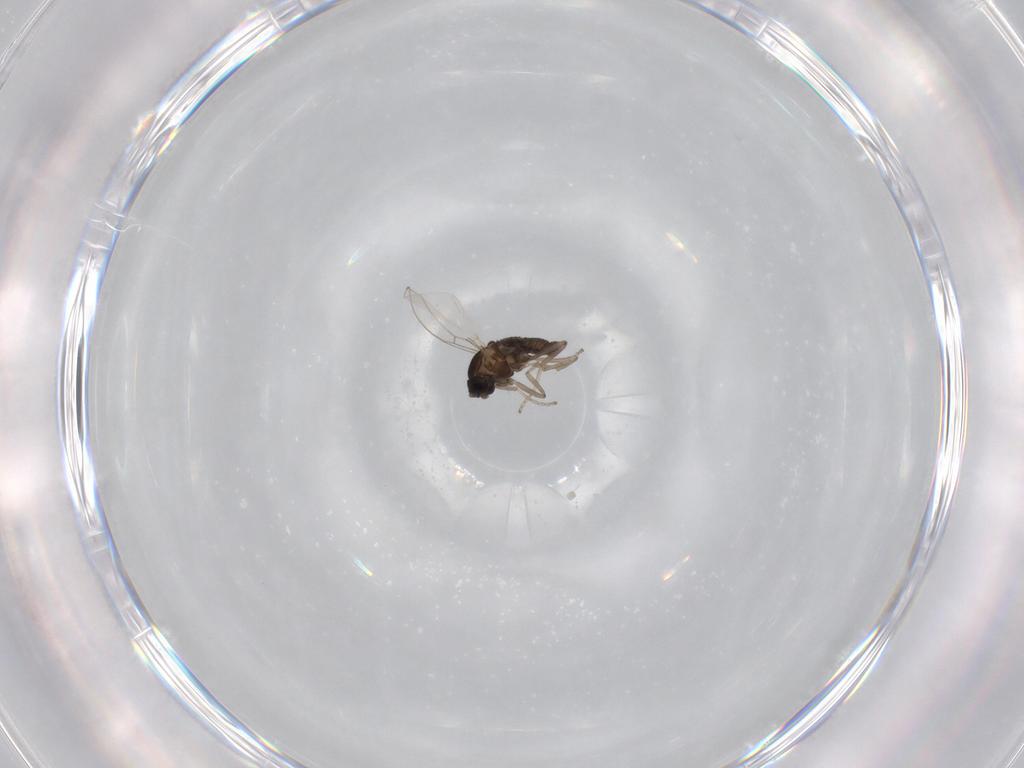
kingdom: Animalia
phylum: Arthropoda
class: Insecta
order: Diptera
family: Cecidomyiidae
